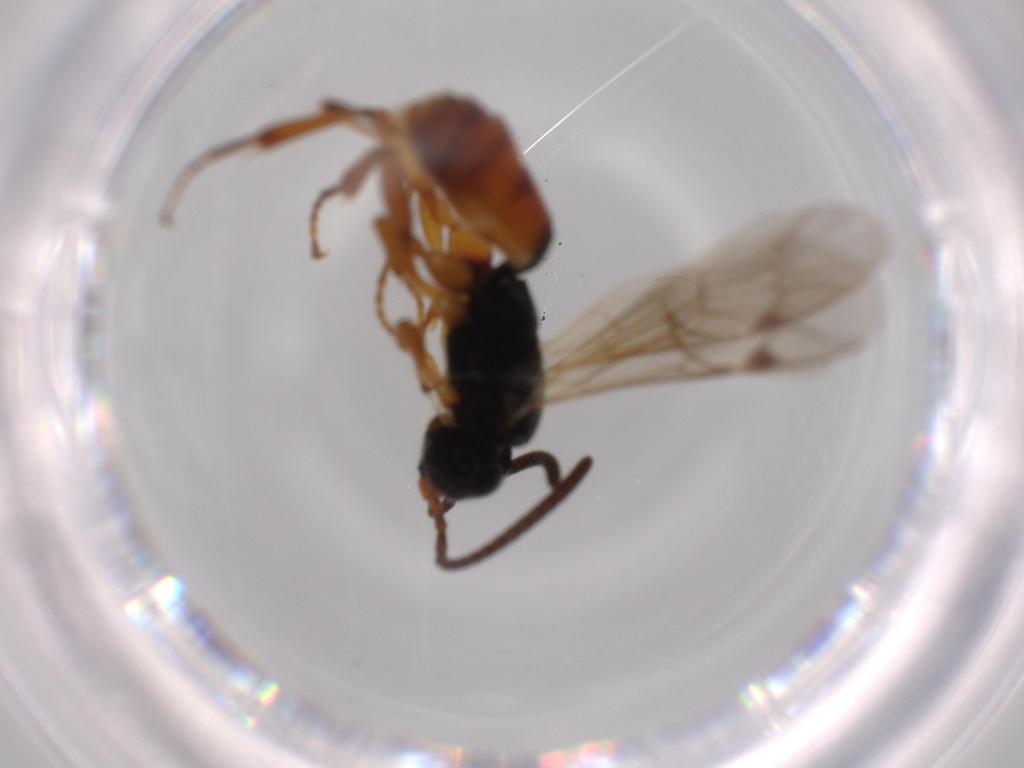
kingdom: Animalia
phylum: Arthropoda
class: Insecta
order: Hymenoptera
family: Ichneumonidae
